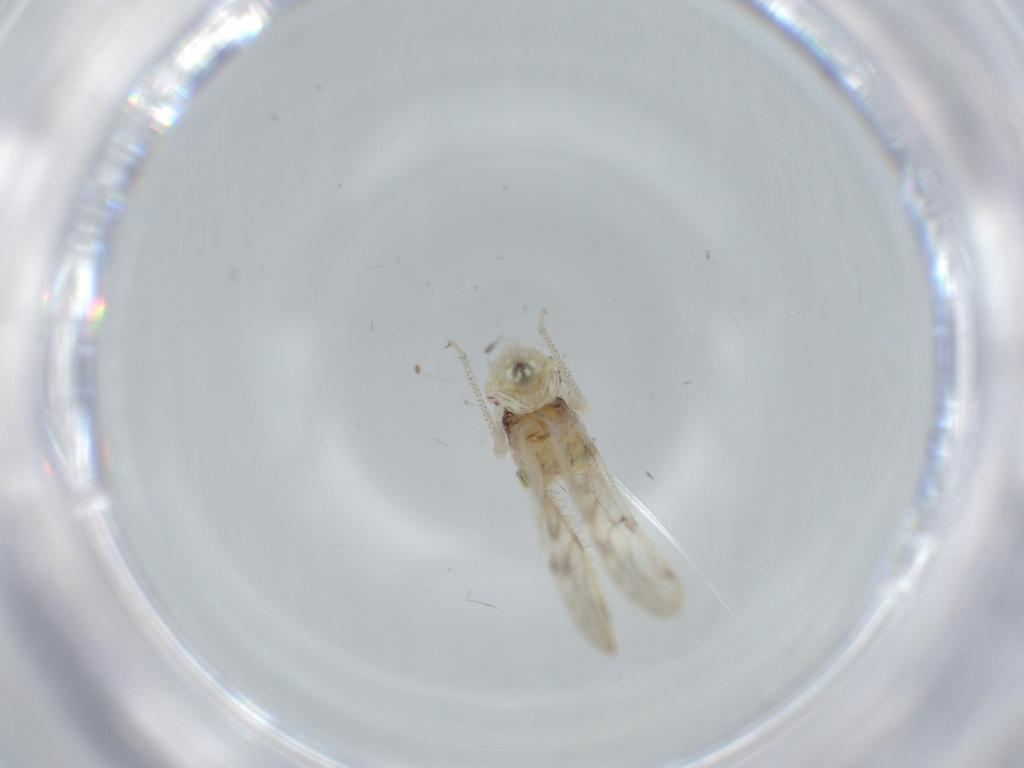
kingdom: Animalia
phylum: Arthropoda
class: Insecta
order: Psocodea
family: Pseudocaeciliidae
